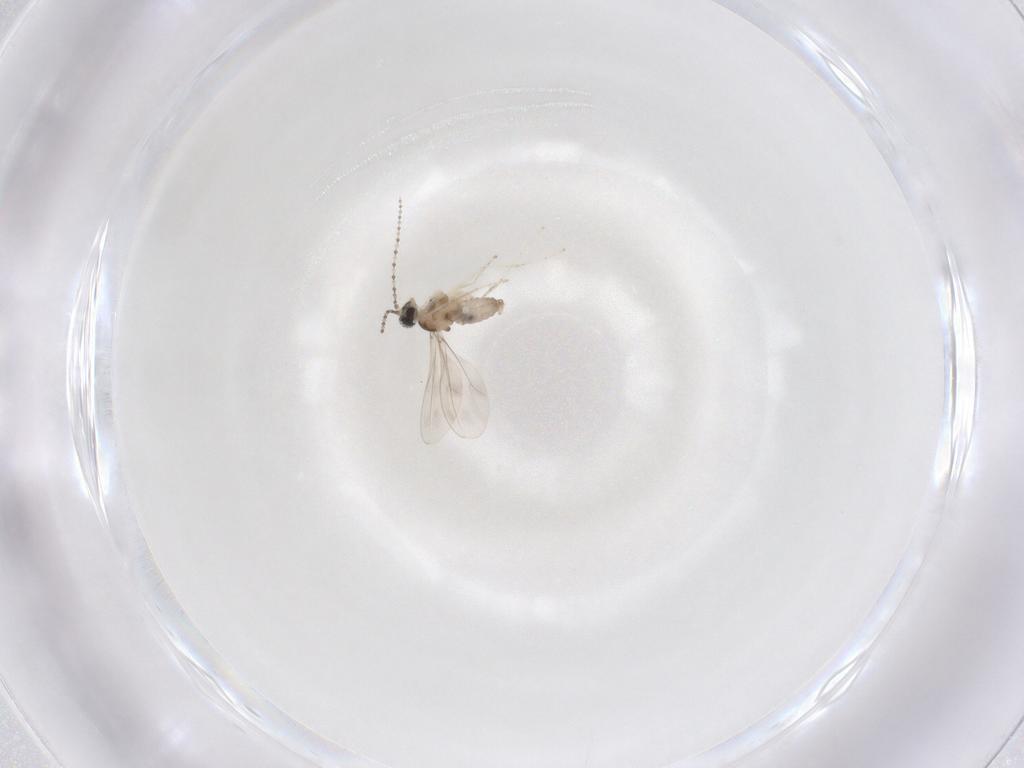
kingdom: Animalia
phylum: Arthropoda
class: Insecta
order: Diptera
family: Cecidomyiidae
